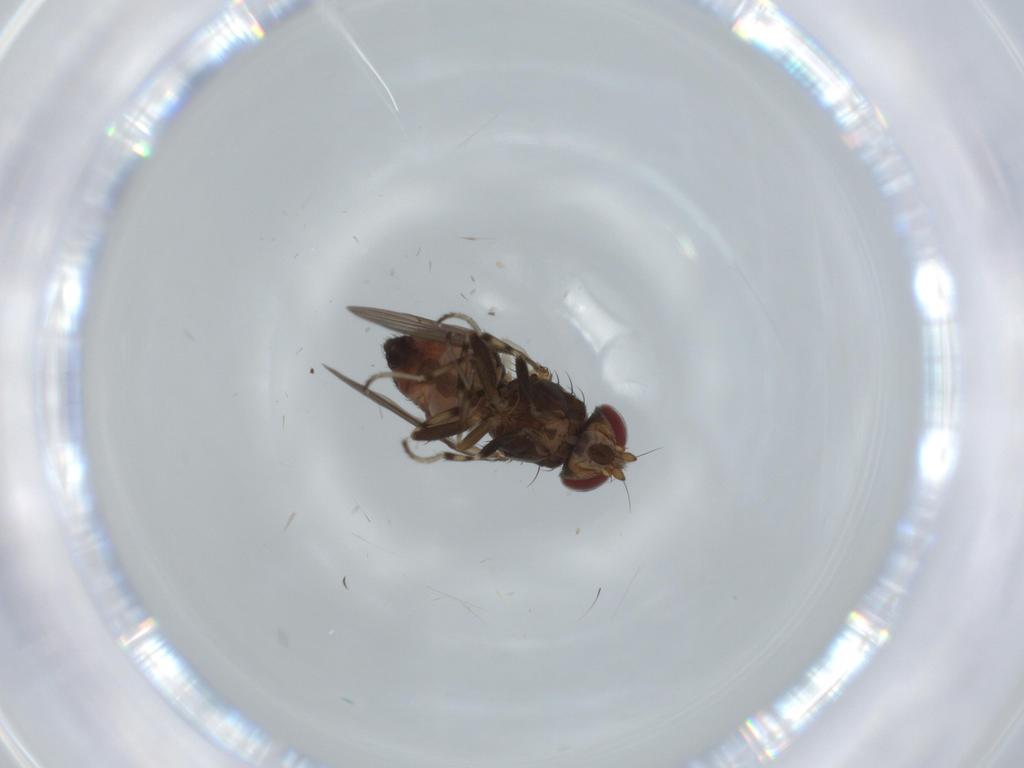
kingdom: Animalia
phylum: Arthropoda
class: Insecta
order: Diptera
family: Heleomyzidae
